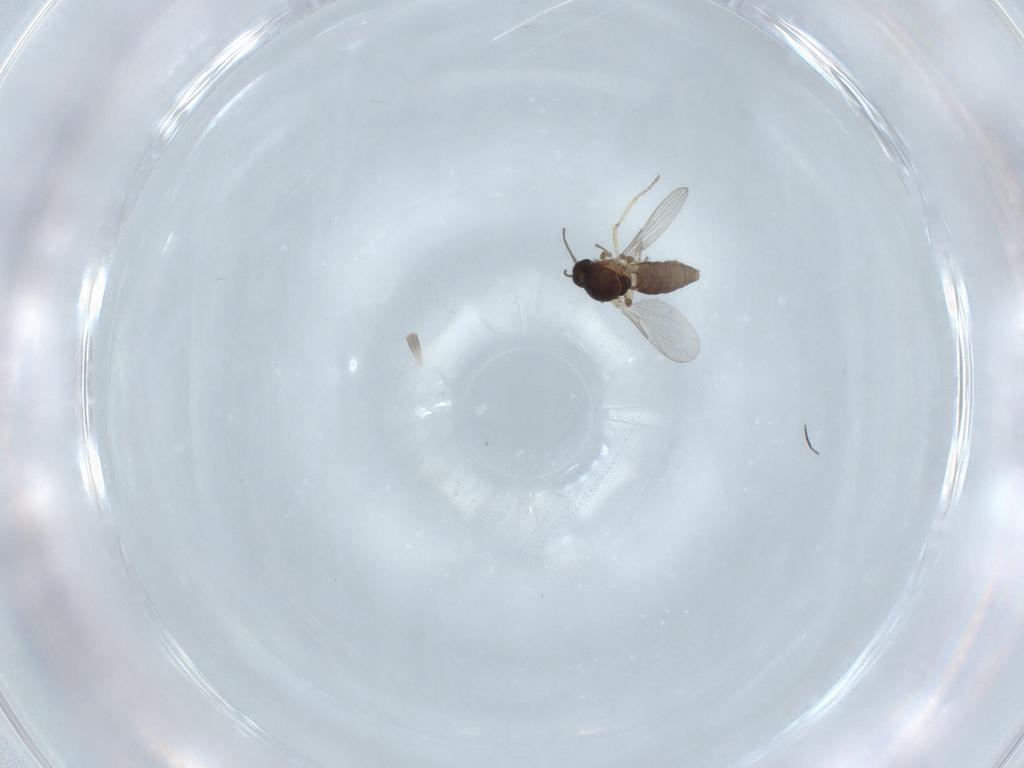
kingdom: Animalia
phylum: Arthropoda
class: Insecta
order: Diptera
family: Ceratopogonidae
